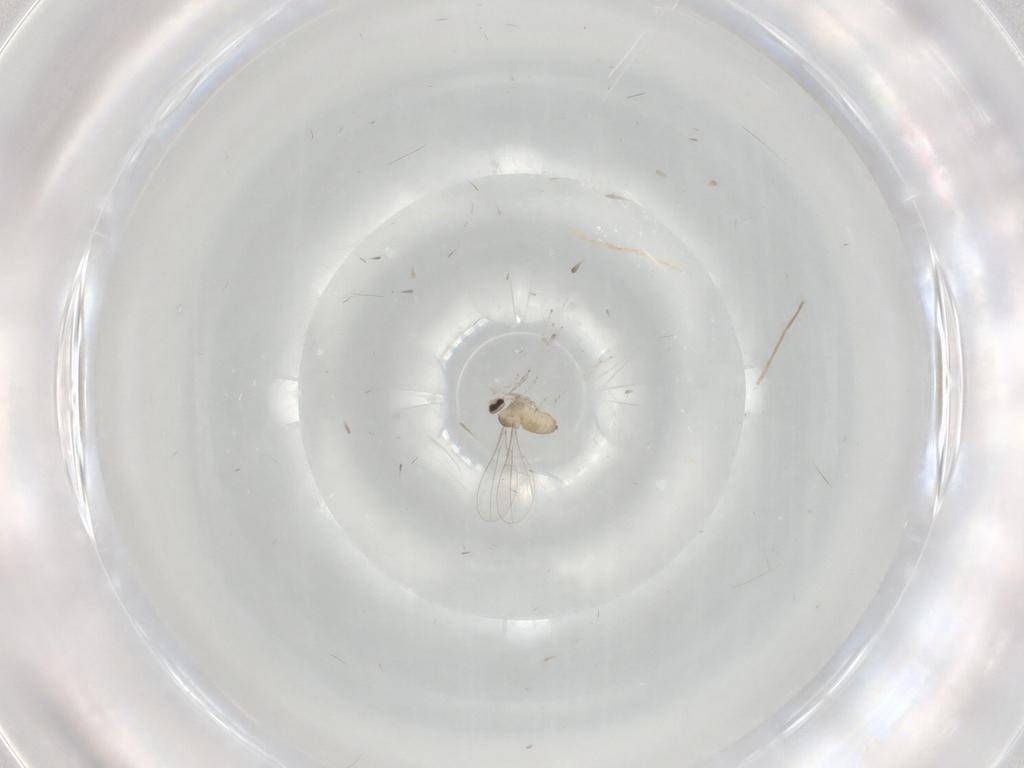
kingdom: Animalia
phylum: Arthropoda
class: Insecta
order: Diptera
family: Cecidomyiidae
